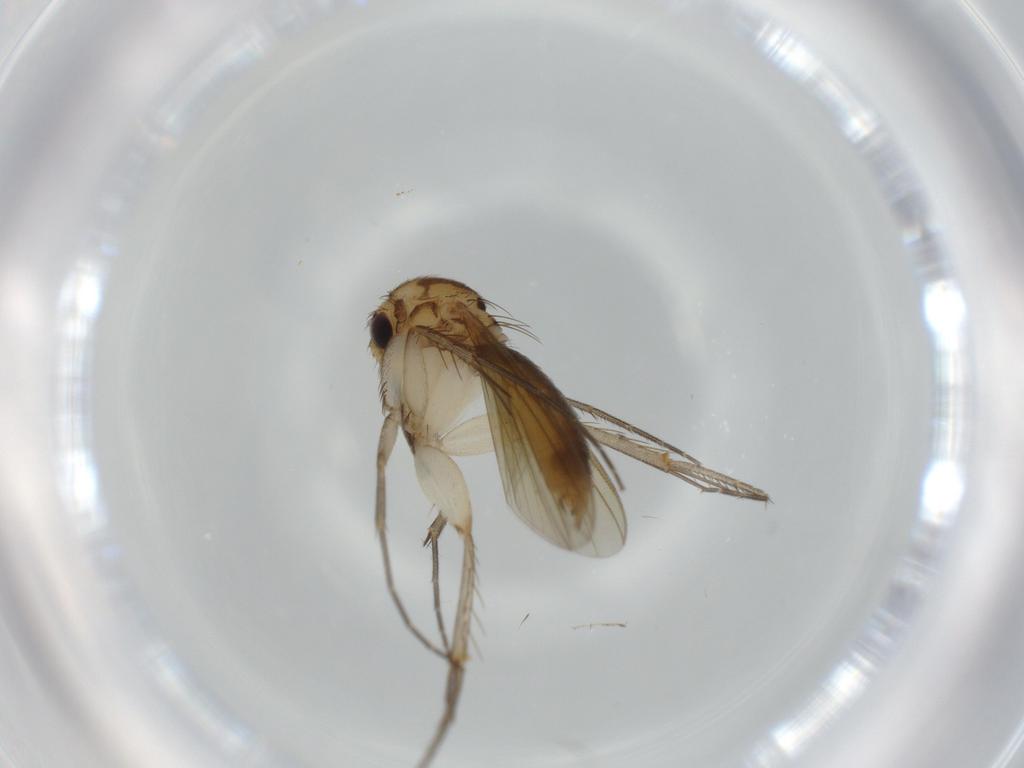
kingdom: Animalia
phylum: Arthropoda
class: Insecta
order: Diptera
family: Mycetophilidae
